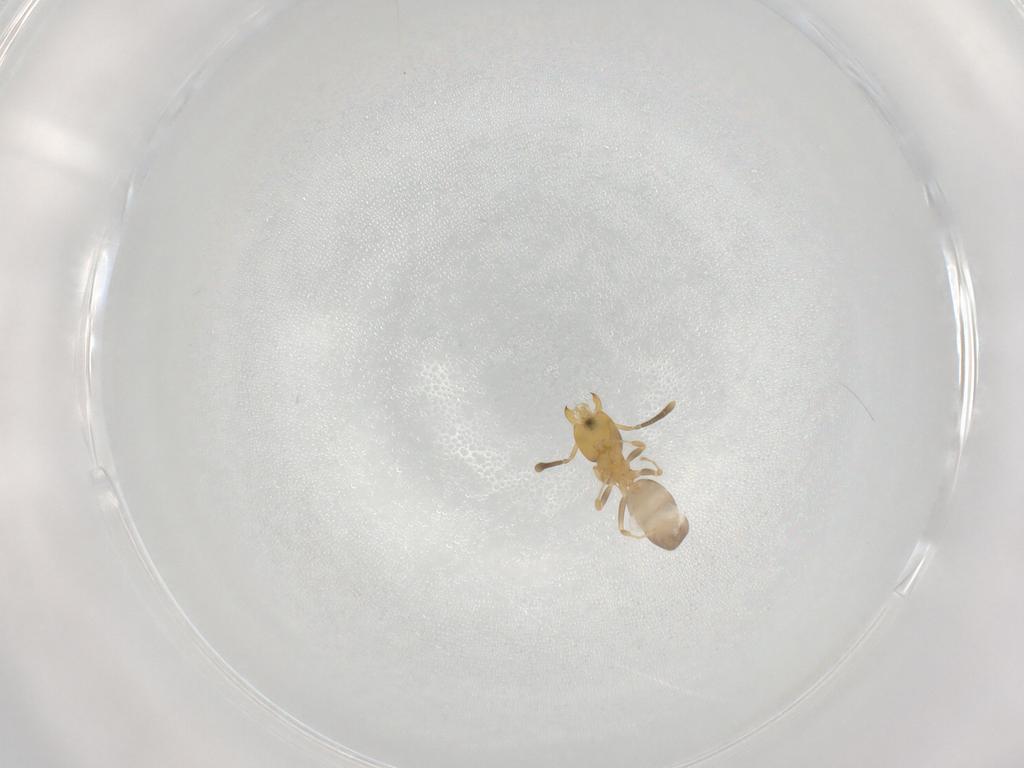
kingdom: Animalia
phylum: Arthropoda
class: Insecta
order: Hymenoptera
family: Formicidae
